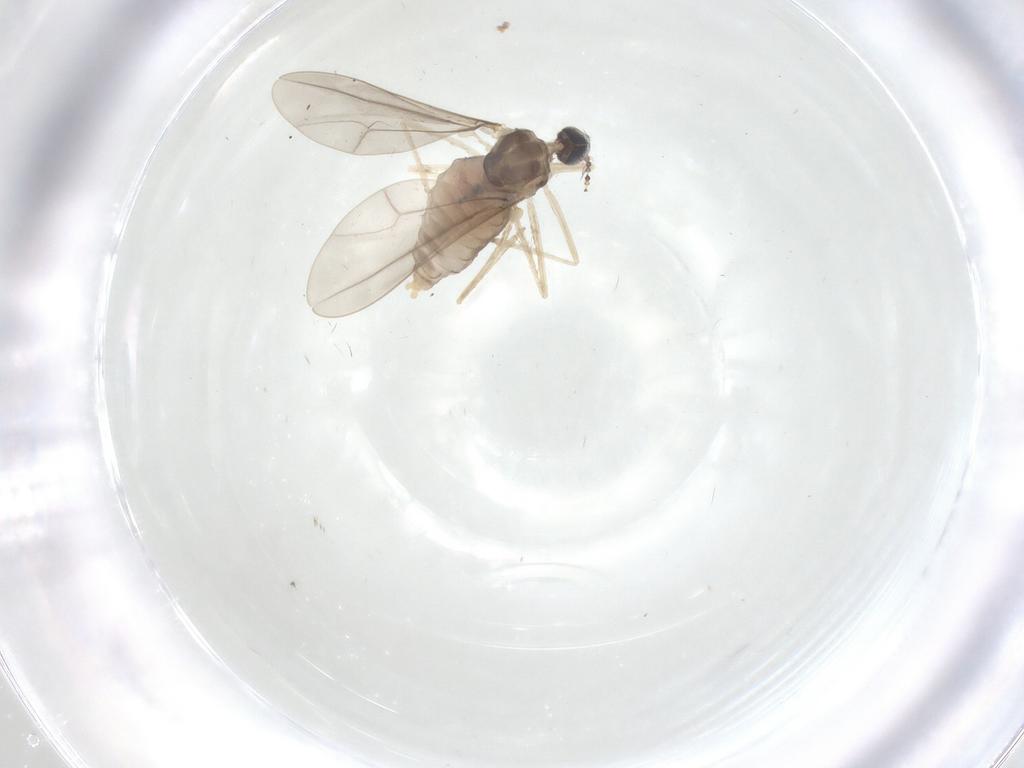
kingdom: Animalia
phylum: Arthropoda
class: Insecta
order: Diptera
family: Cecidomyiidae
